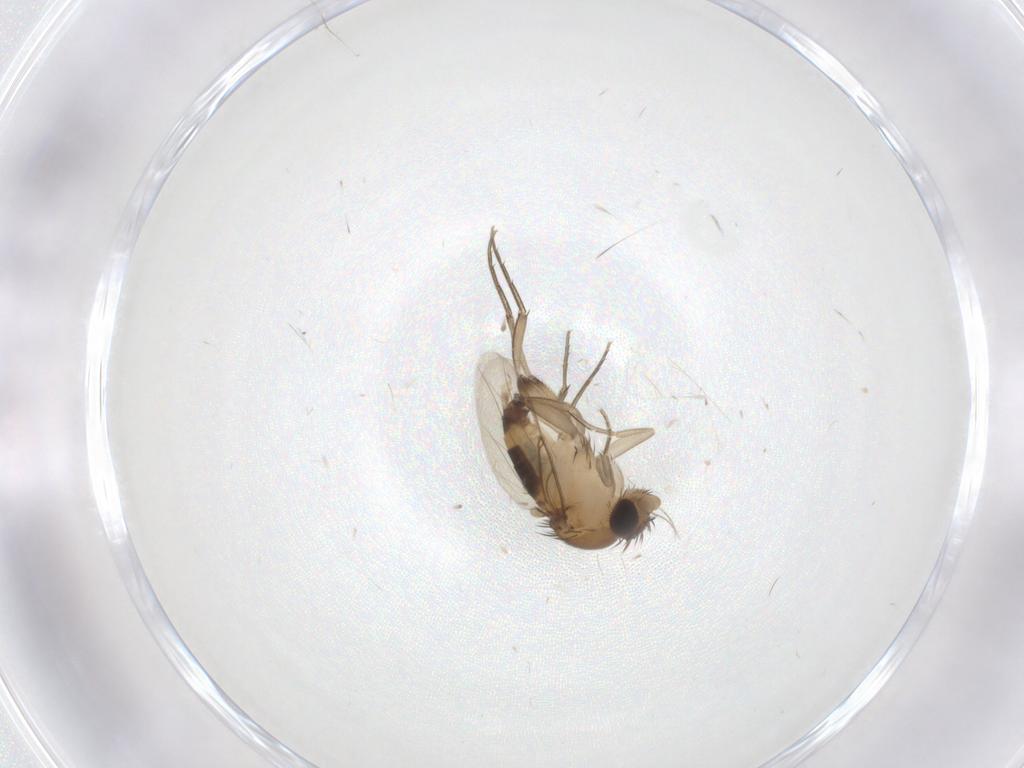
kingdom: Animalia
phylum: Arthropoda
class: Insecta
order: Diptera
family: Phoridae
